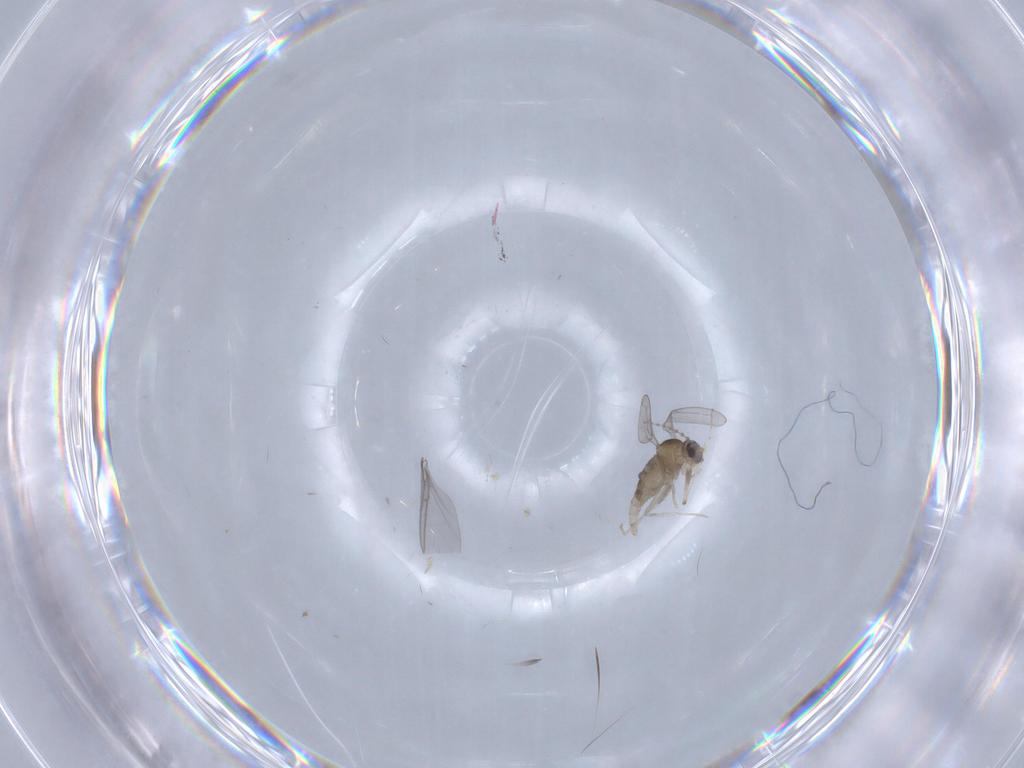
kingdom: Animalia
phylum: Arthropoda
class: Insecta
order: Diptera
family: Cecidomyiidae
